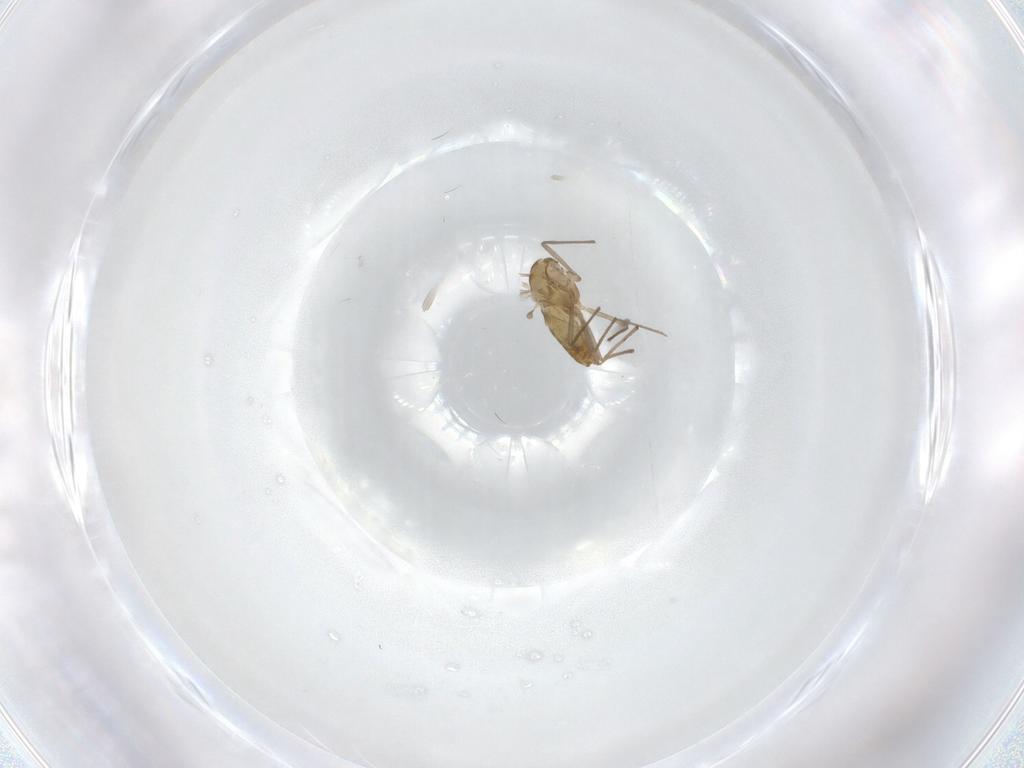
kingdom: Animalia
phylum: Arthropoda
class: Insecta
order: Diptera
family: Chironomidae
